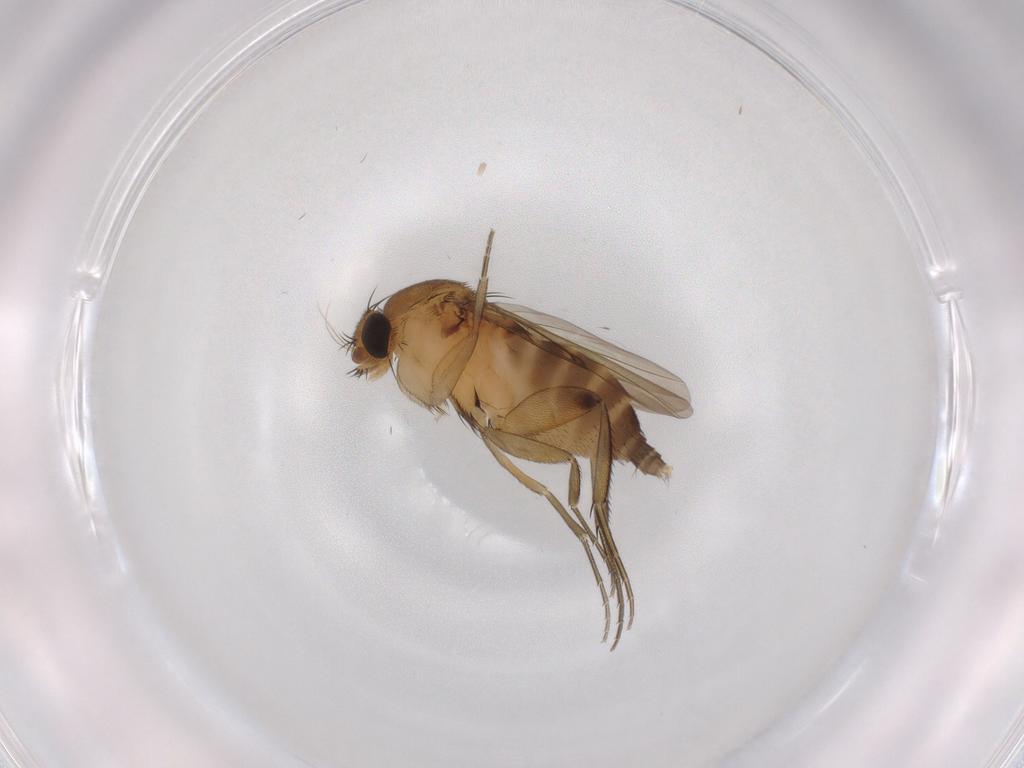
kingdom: Animalia
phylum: Arthropoda
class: Insecta
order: Diptera
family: Phoridae
